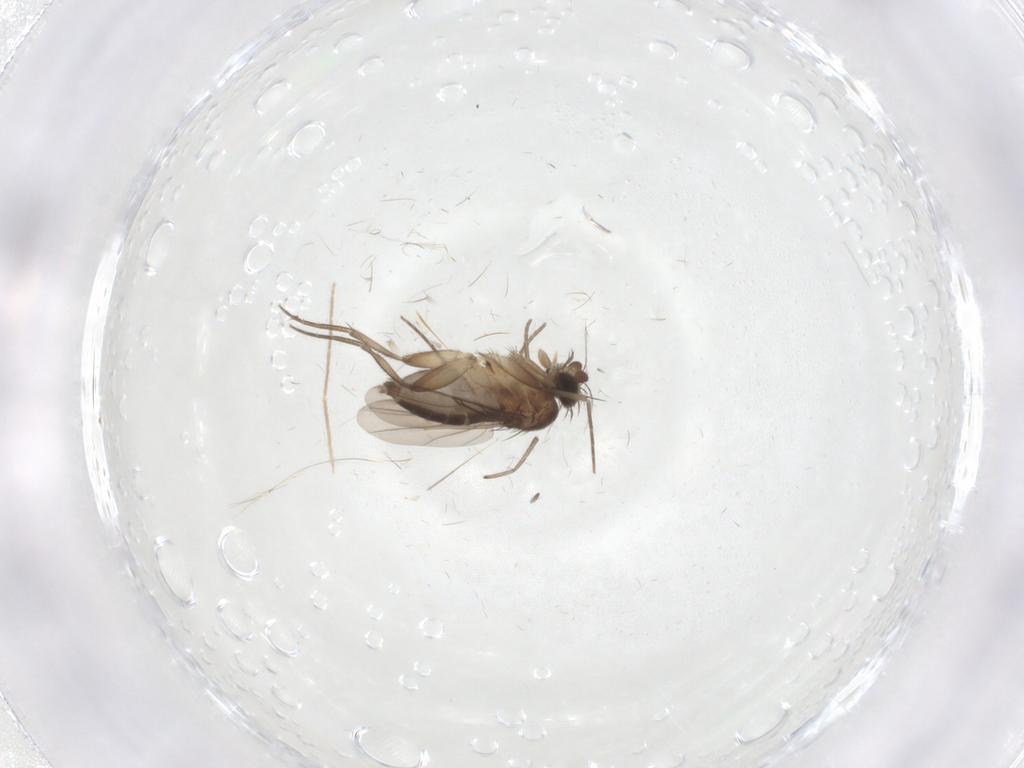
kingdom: Animalia
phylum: Arthropoda
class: Insecta
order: Diptera
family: Phoridae
